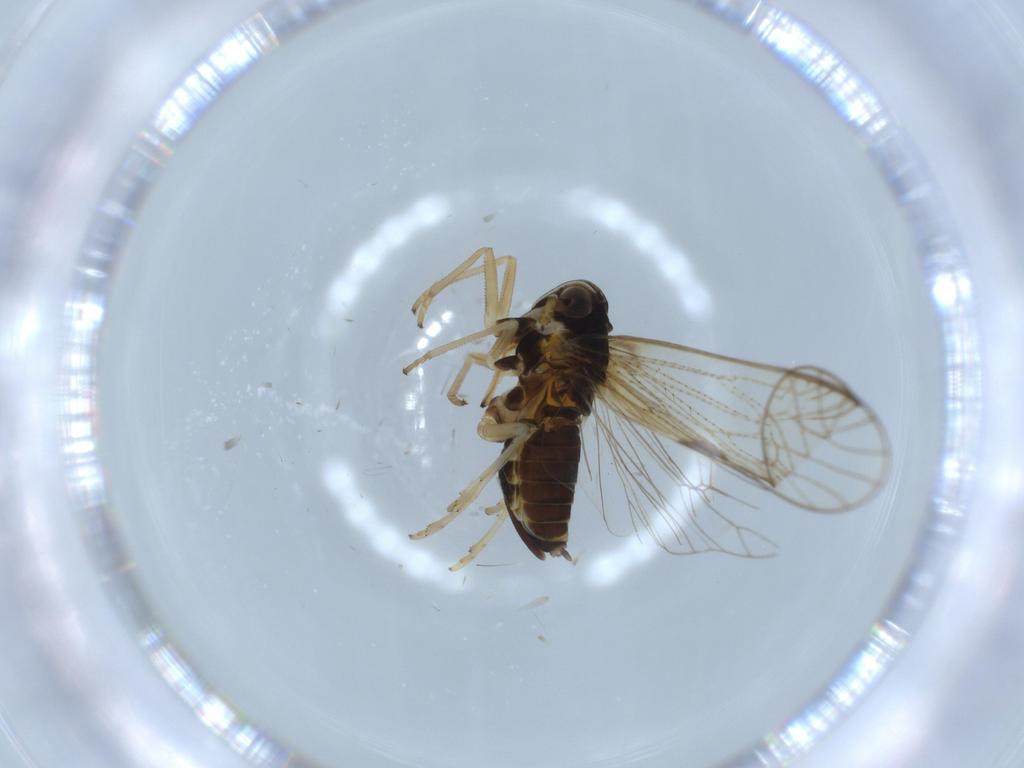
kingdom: Animalia
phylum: Arthropoda
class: Insecta
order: Diptera
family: Chironomidae
